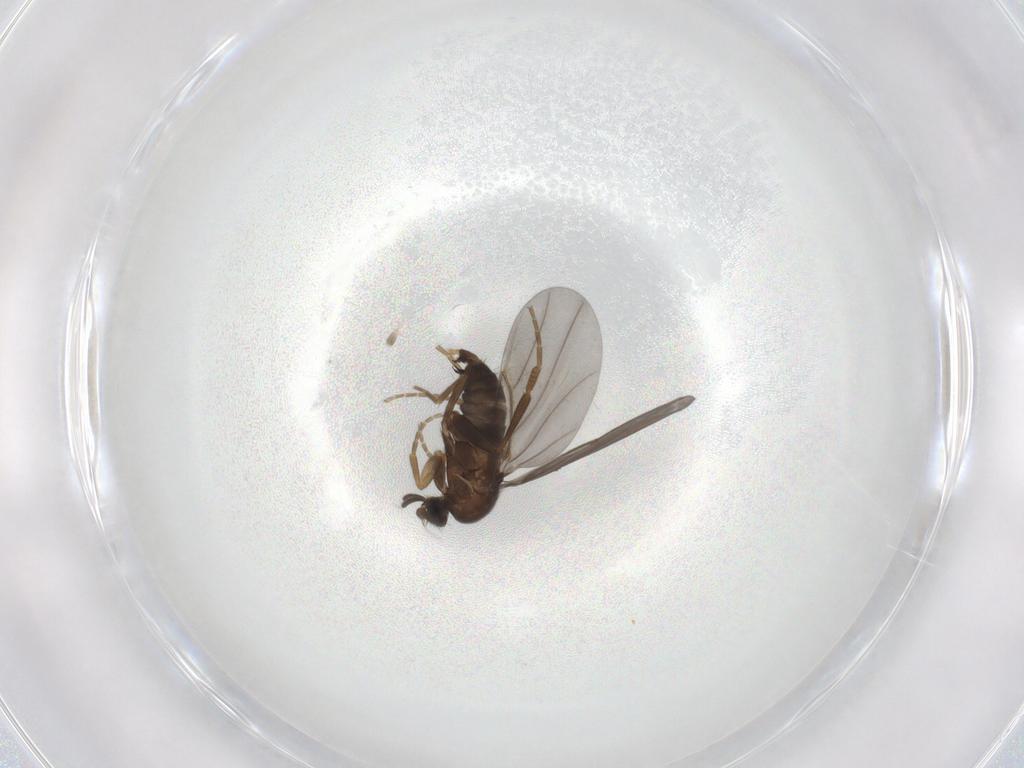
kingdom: Animalia
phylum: Arthropoda
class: Insecta
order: Diptera
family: Phoridae
